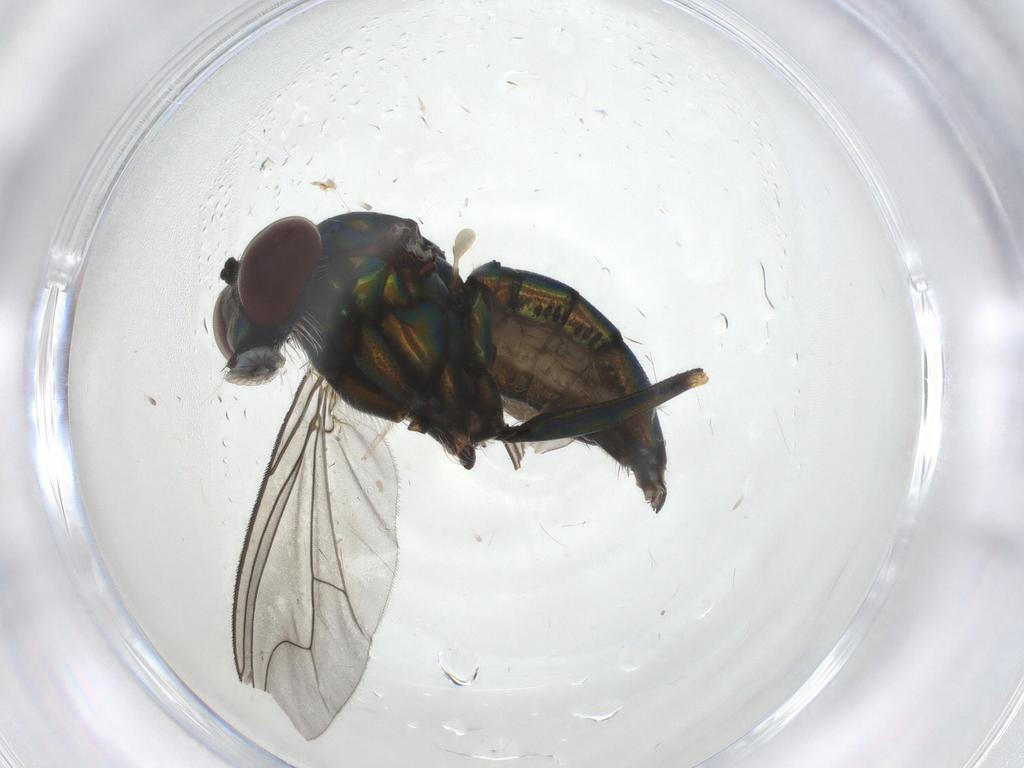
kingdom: Animalia
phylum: Arthropoda
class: Insecta
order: Diptera
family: Dolichopodidae
